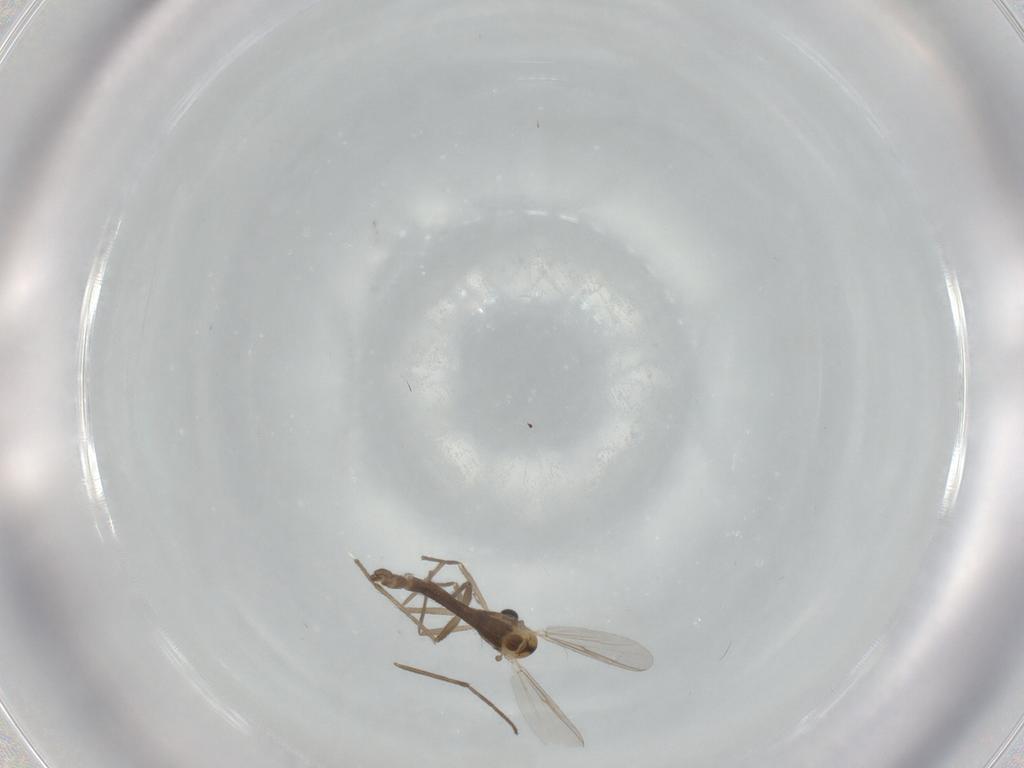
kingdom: Animalia
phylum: Arthropoda
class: Insecta
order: Diptera
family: Chironomidae
